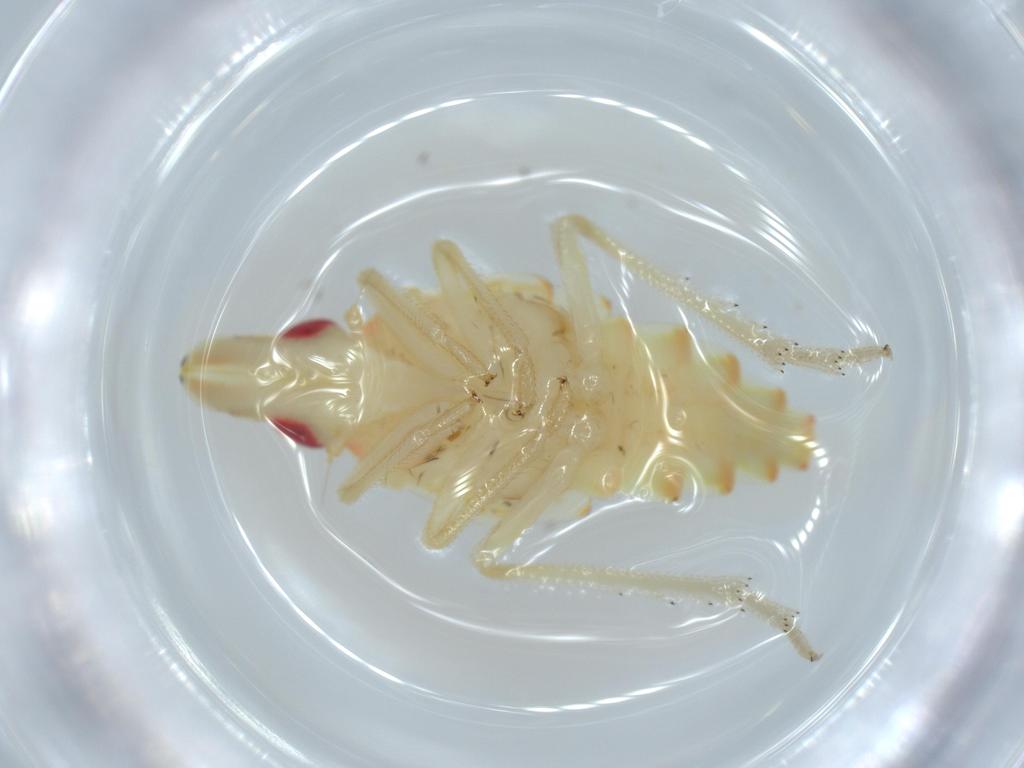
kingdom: Animalia
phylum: Arthropoda
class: Insecta
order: Hemiptera
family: Tropiduchidae
